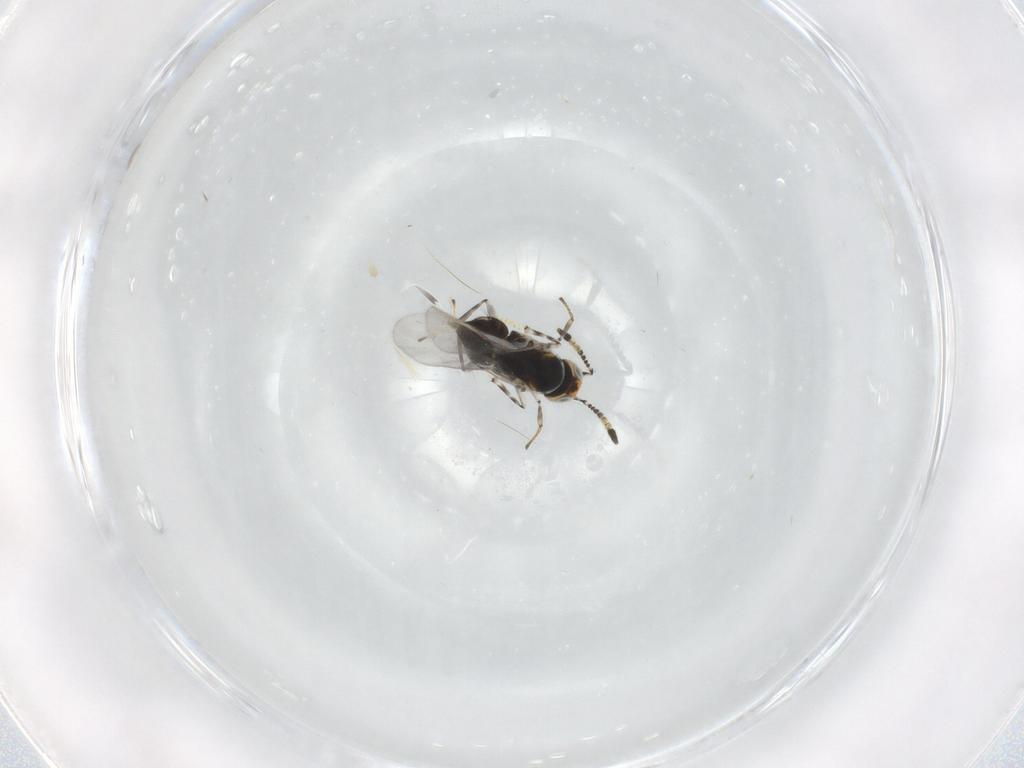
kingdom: Animalia
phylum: Arthropoda
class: Insecta
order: Hymenoptera
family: Encyrtidae
